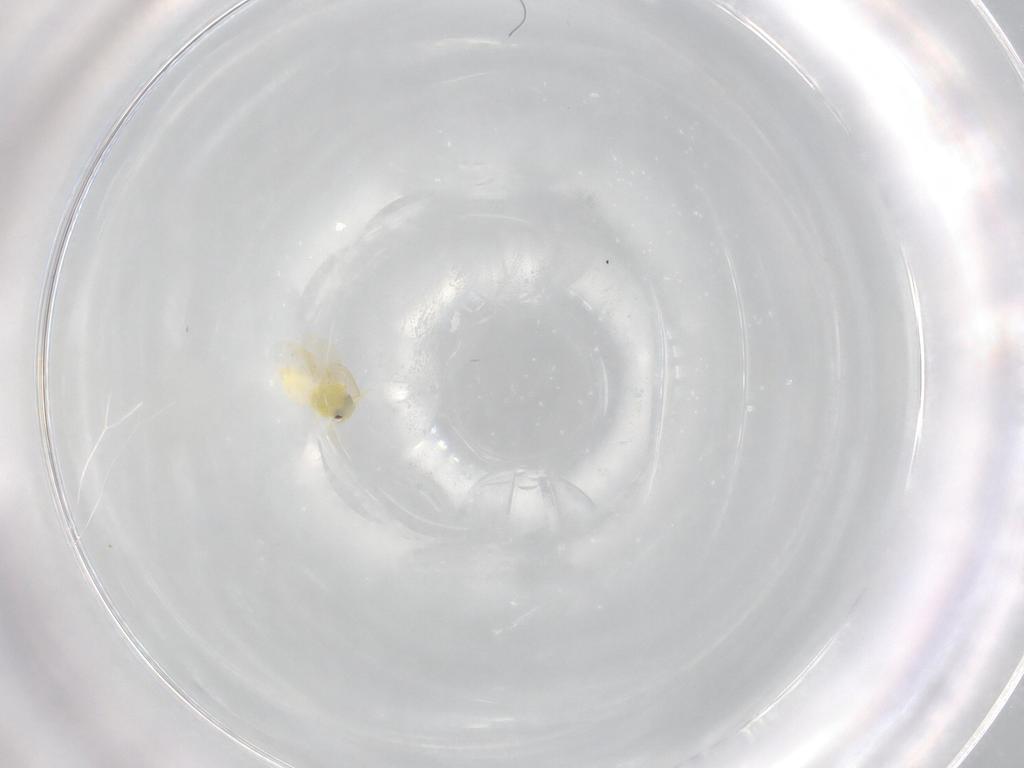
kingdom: Animalia
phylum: Arthropoda
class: Insecta
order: Hemiptera
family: Aleyrodidae
